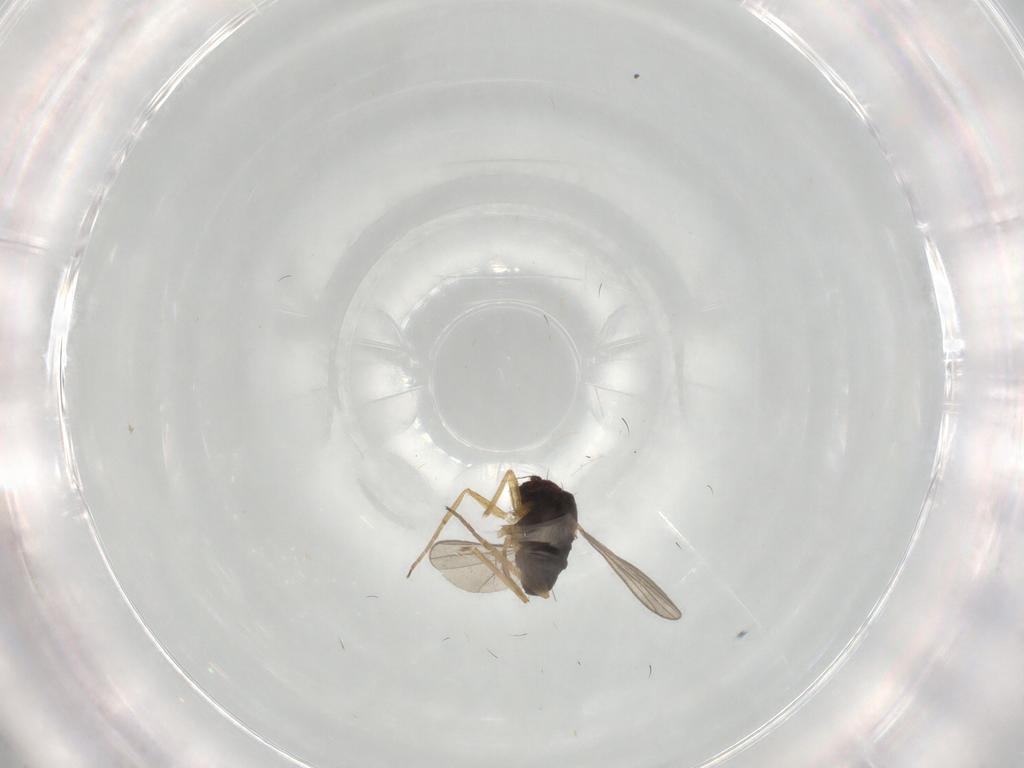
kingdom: Animalia
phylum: Arthropoda
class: Insecta
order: Diptera
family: Dolichopodidae
